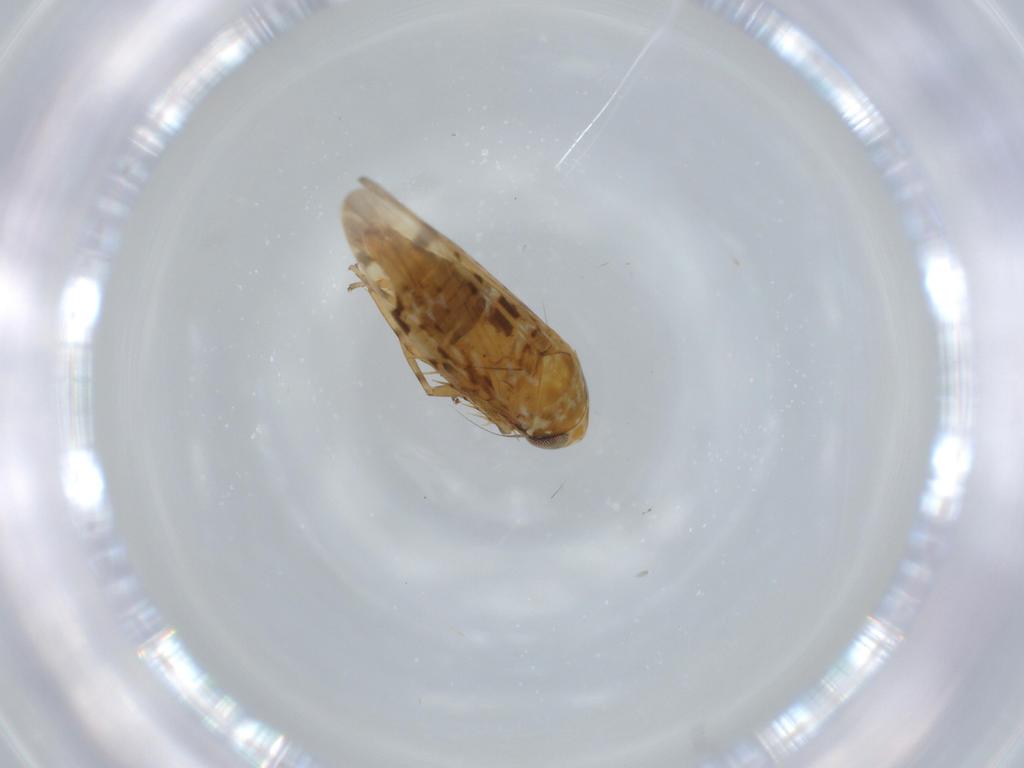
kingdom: Animalia
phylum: Arthropoda
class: Insecta
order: Hemiptera
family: Cicadellidae
